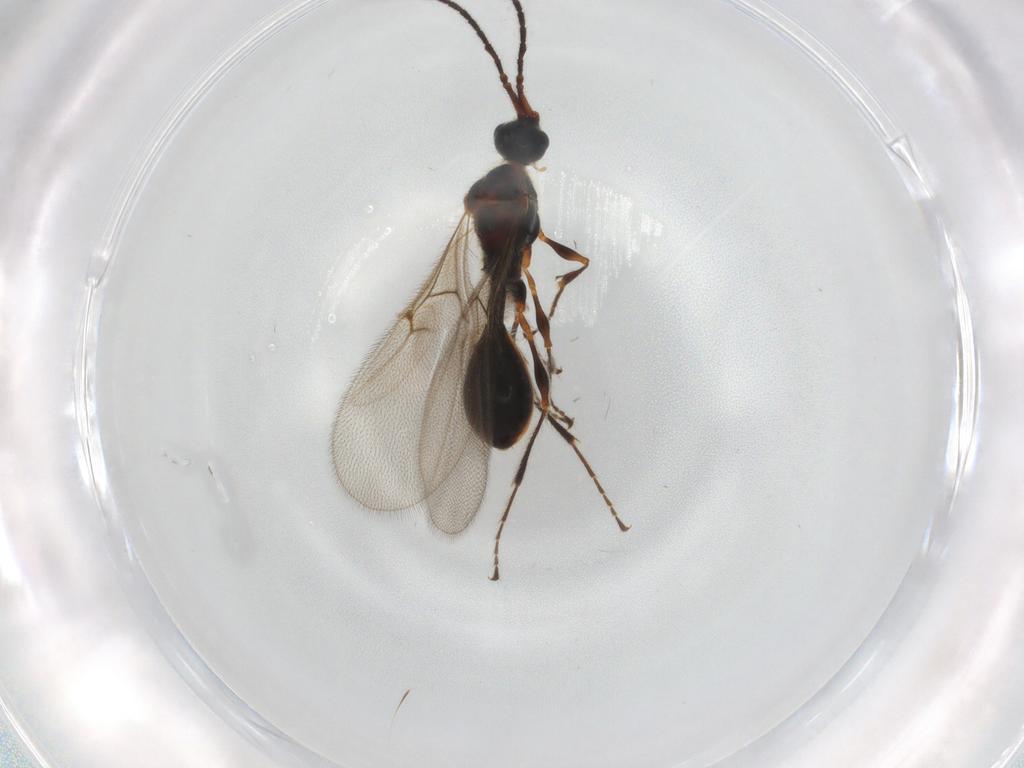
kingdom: Animalia
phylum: Arthropoda
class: Insecta
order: Hymenoptera
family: Diapriidae
